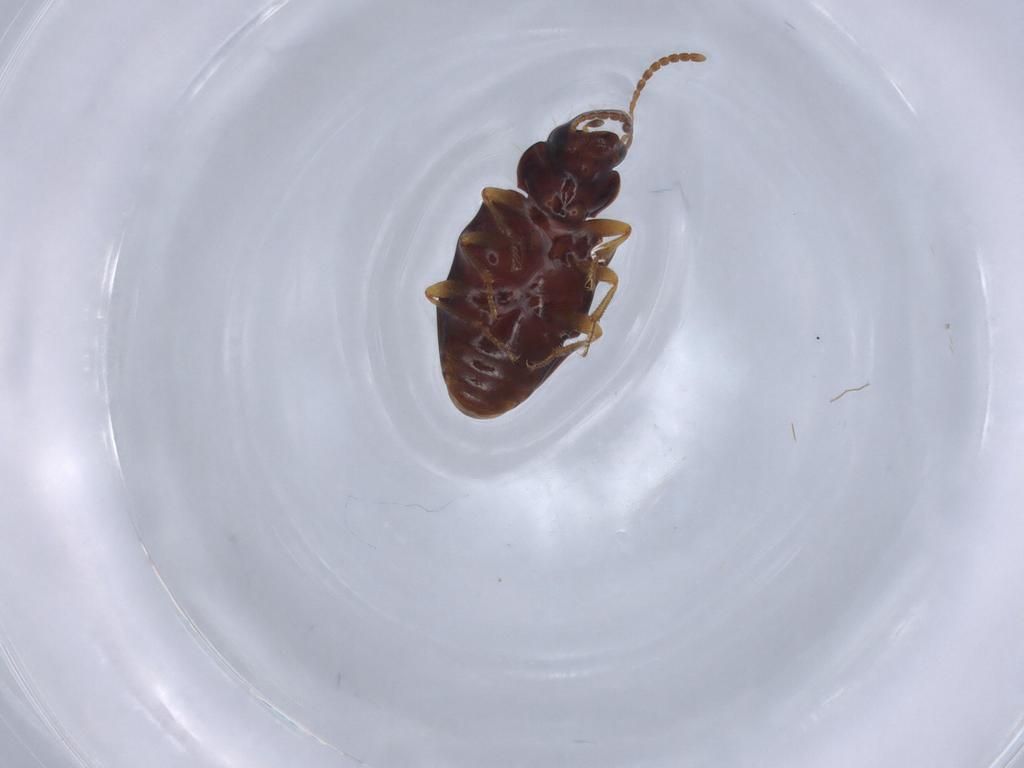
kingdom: Animalia
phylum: Arthropoda
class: Insecta
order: Coleoptera
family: Carabidae
